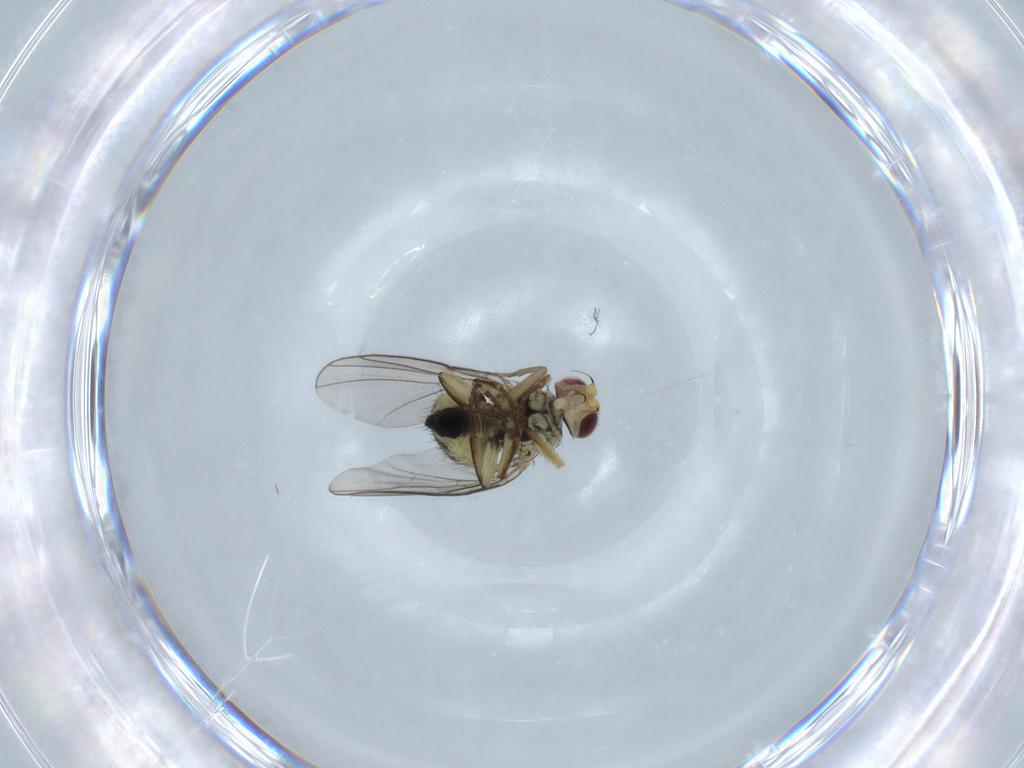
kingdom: Animalia
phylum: Arthropoda
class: Insecta
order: Diptera
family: Agromyzidae
